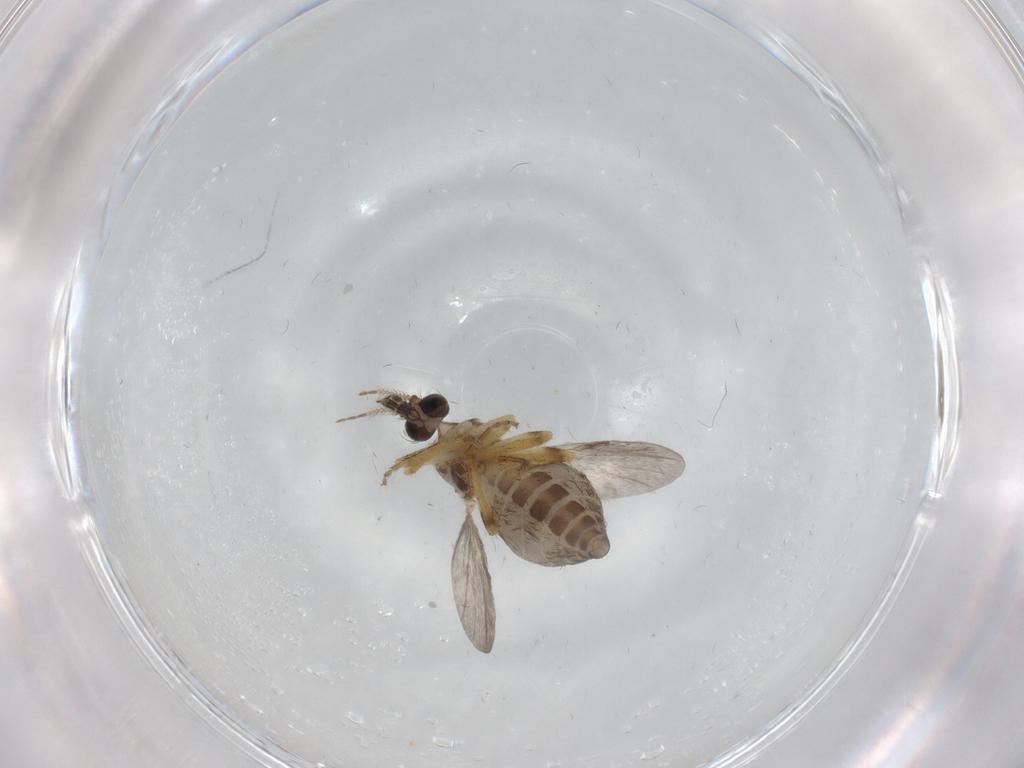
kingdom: Animalia
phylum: Arthropoda
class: Insecta
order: Diptera
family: Ceratopogonidae
